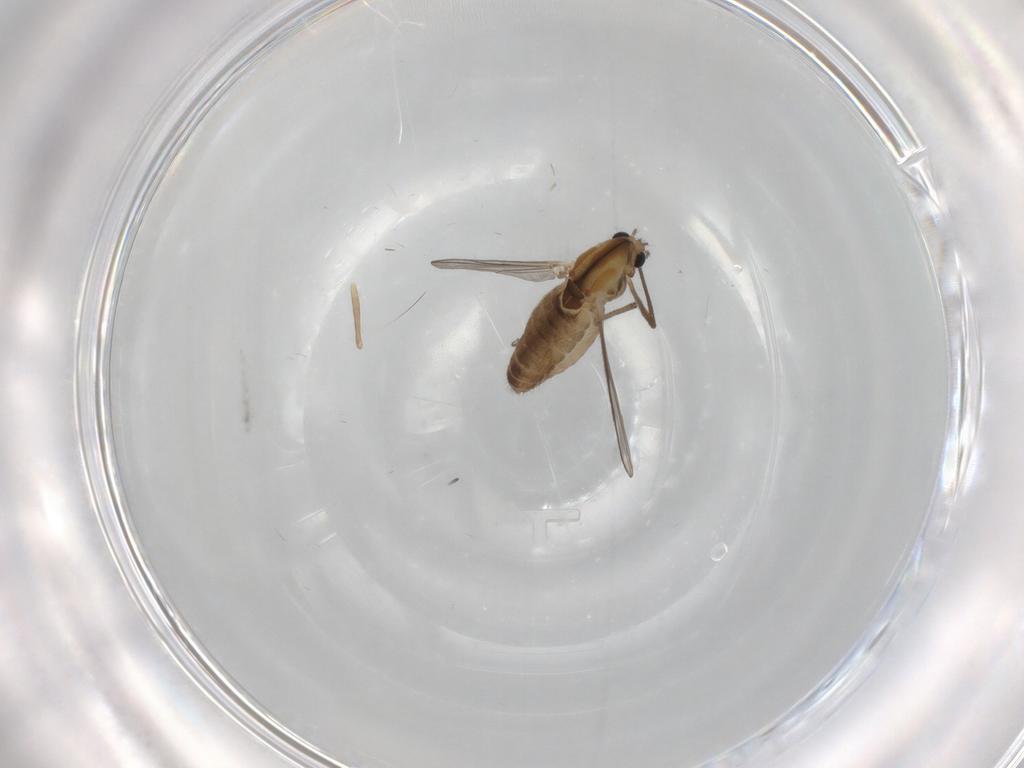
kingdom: Animalia
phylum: Arthropoda
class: Insecta
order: Diptera
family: Chironomidae
